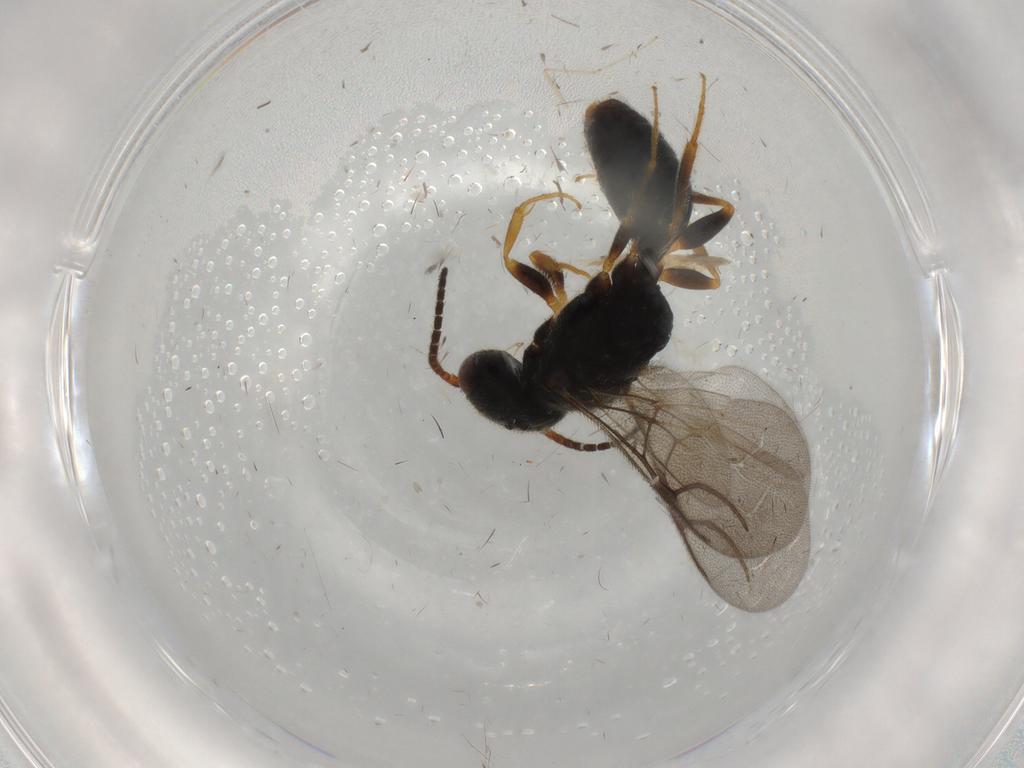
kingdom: Animalia
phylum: Arthropoda
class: Insecta
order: Hymenoptera
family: Bethylidae
